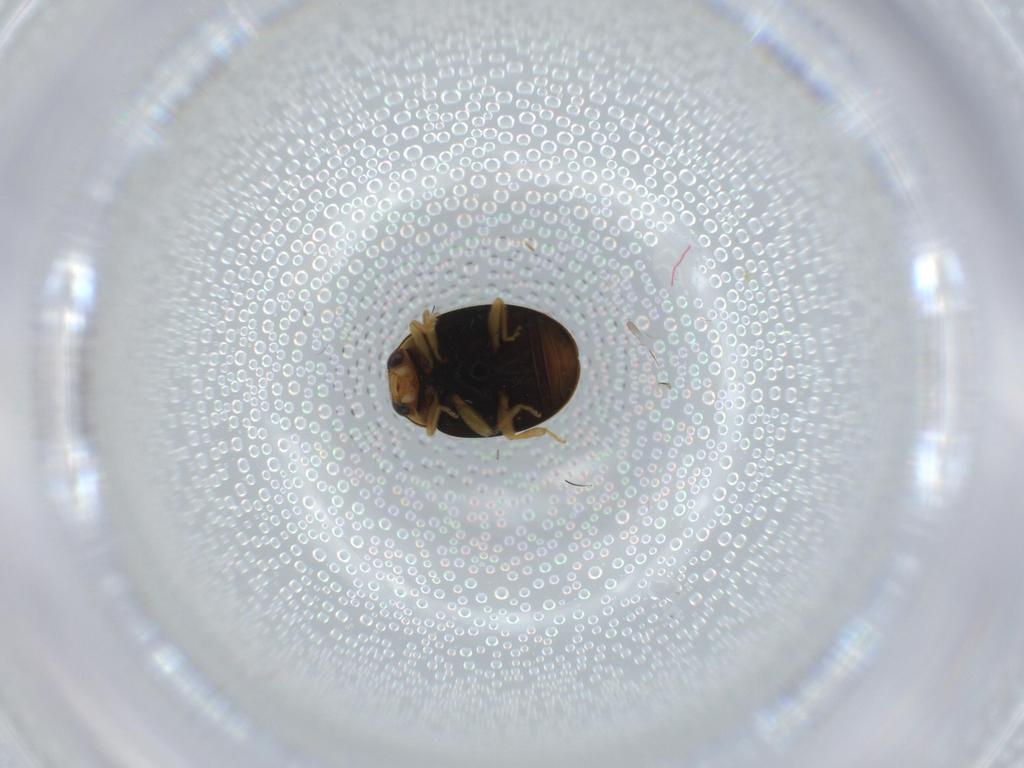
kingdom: Animalia
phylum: Arthropoda
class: Insecta
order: Coleoptera
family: Coccinellidae
